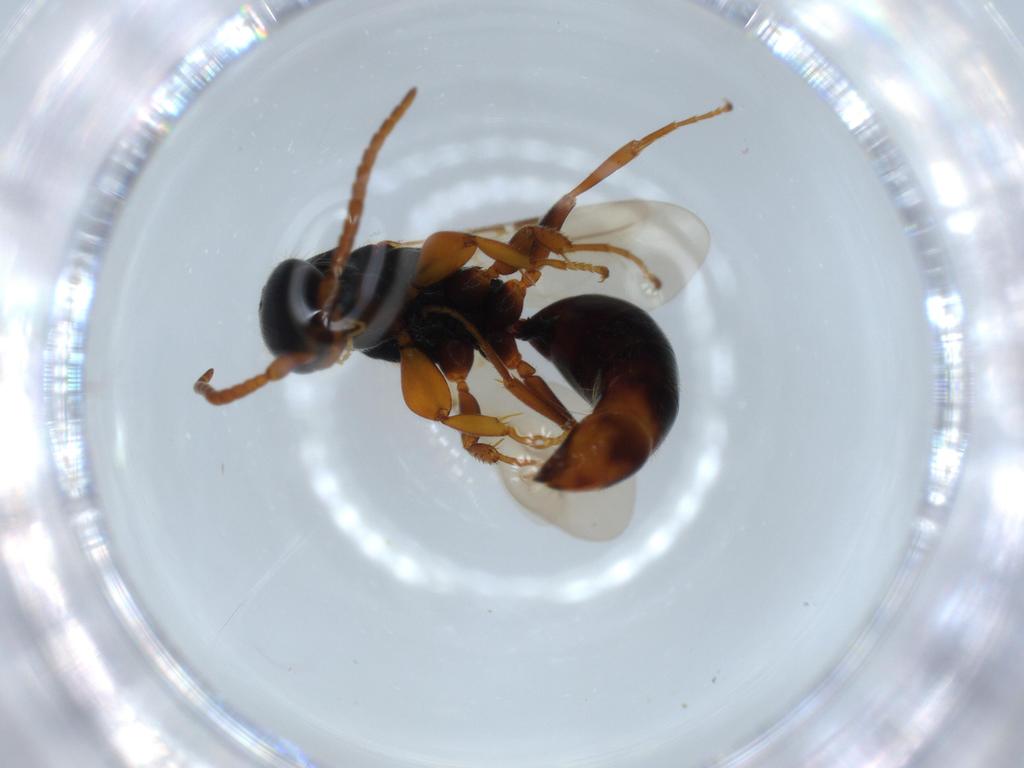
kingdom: Animalia
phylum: Arthropoda
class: Insecta
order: Hymenoptera
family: Bethylidae
